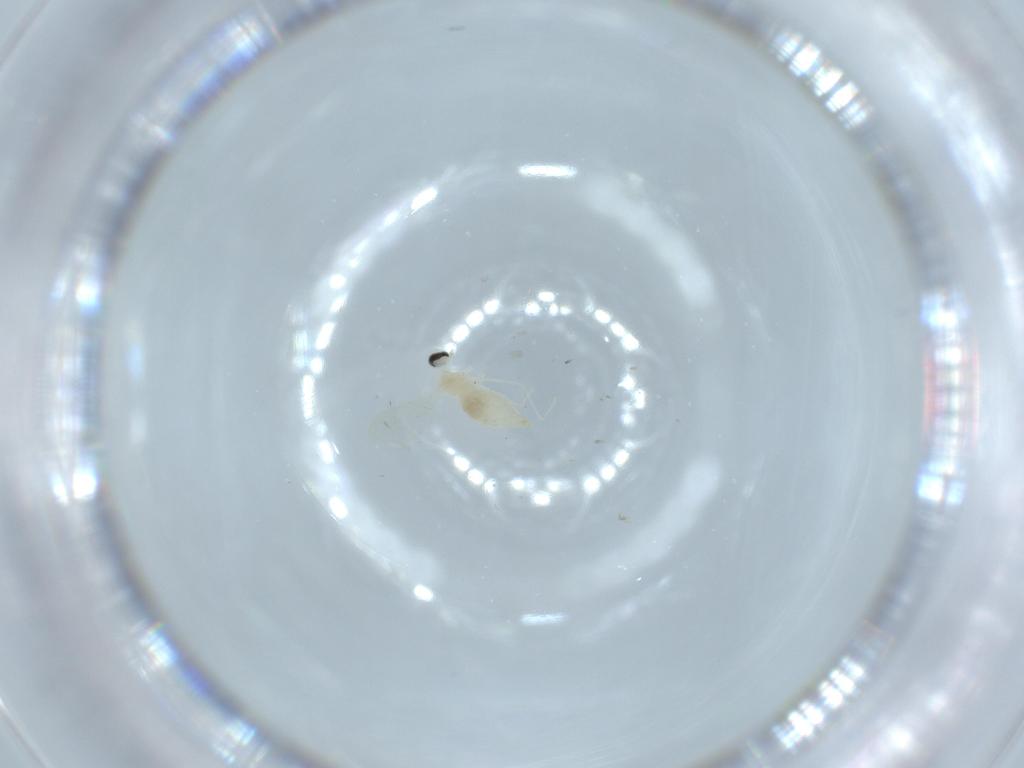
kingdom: Animalia
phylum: Arthropoda
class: Insecta
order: Diptera
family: Cecidomyiidae
